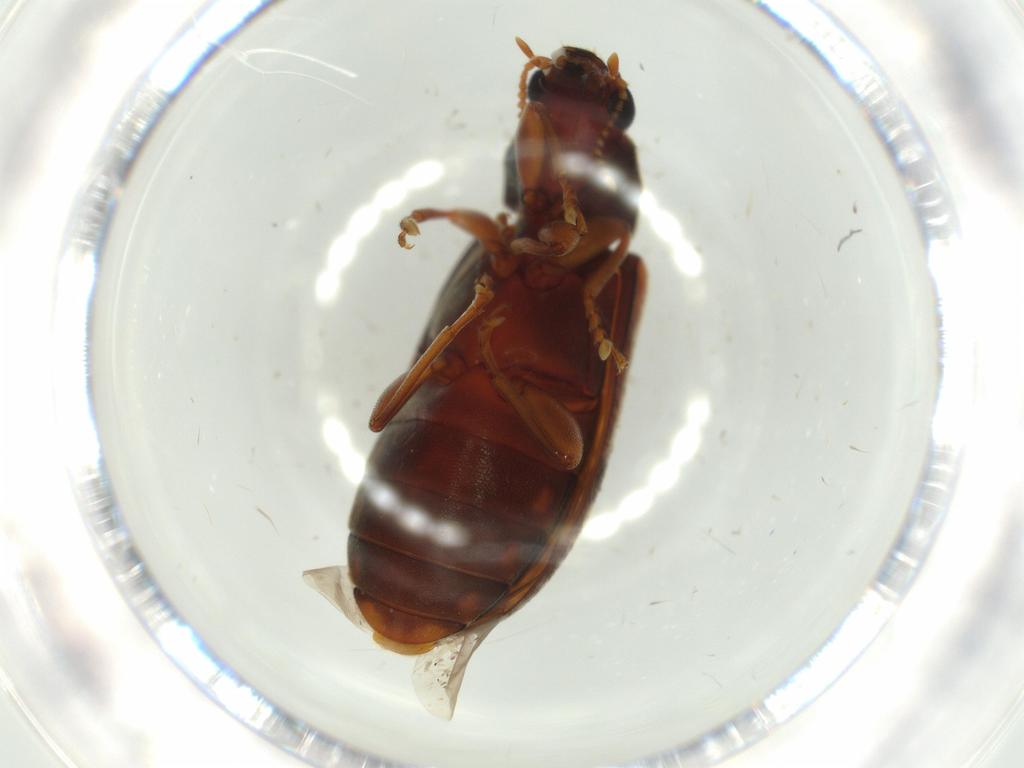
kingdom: Animalia
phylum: Arthropoda
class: Insecta
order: Coleoptera
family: Mycteridae
